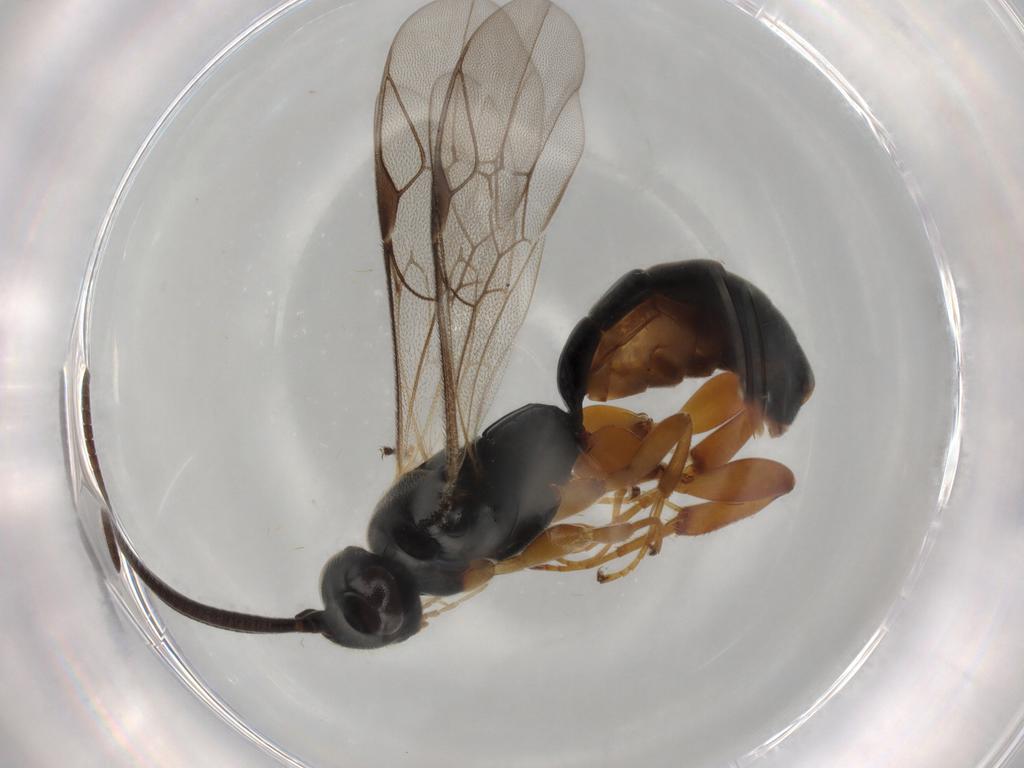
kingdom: Animalia
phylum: Arthropoda
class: Insecta
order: Hymenoptera
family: Ichneumonidae
